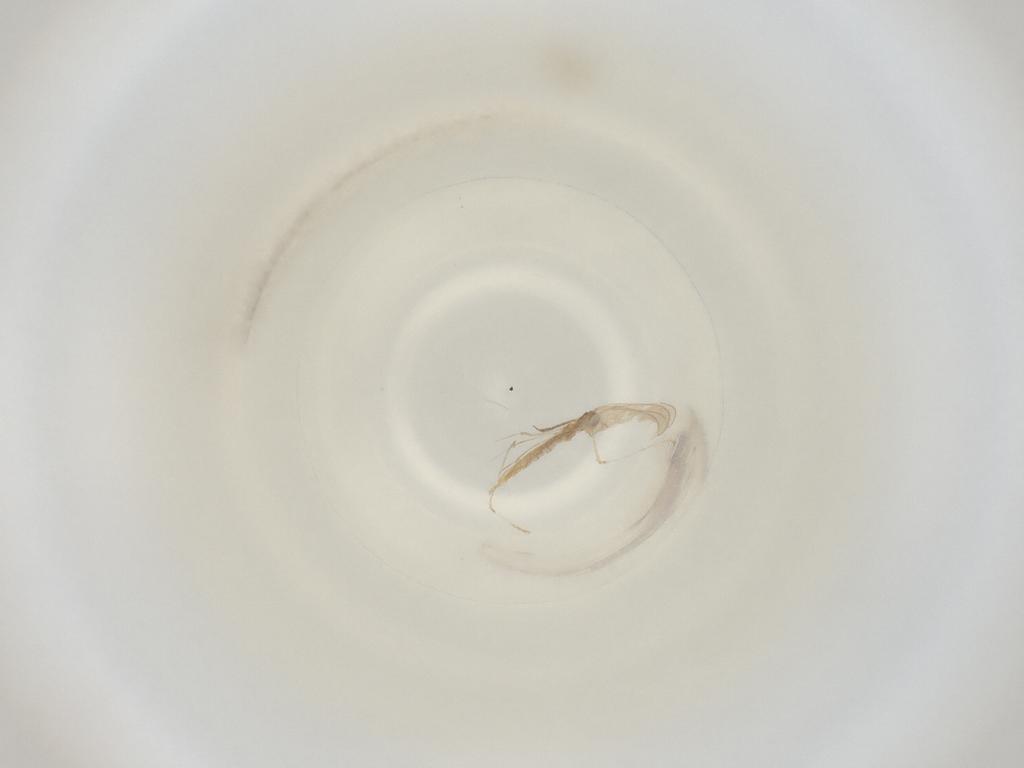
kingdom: Animalia
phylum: Arthropoda
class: Insecta
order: Diptera
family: Cecidomyiidae
